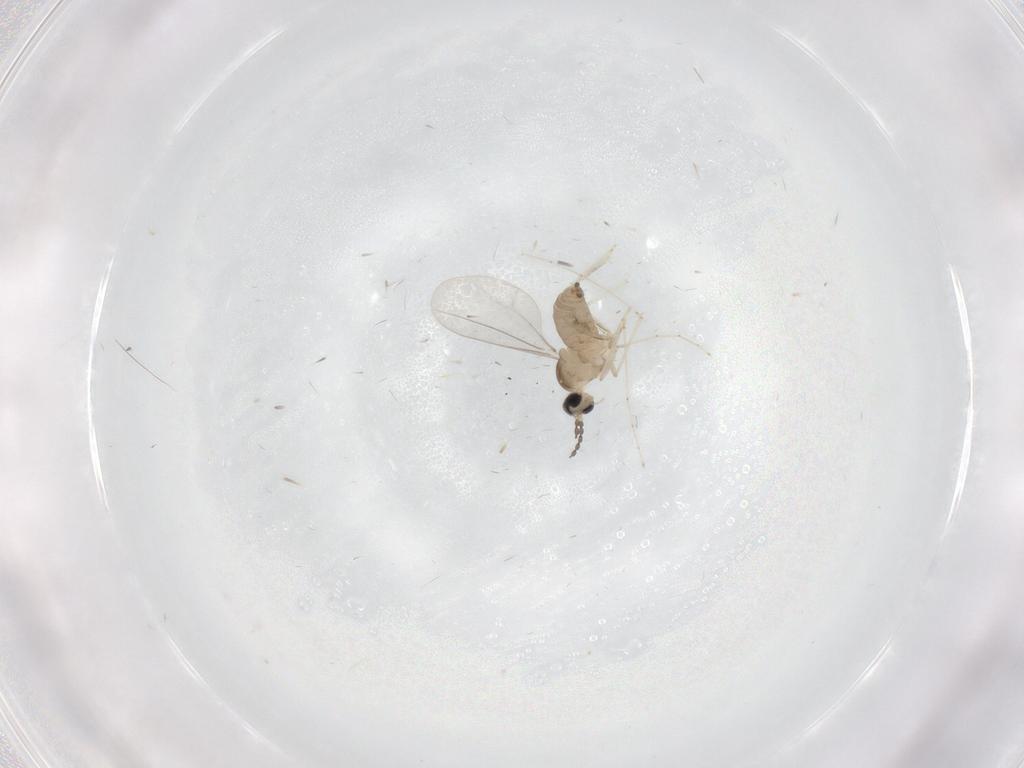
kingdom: Animalia
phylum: Arthropoda
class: Insecta
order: Diptera
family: Cecidomyiidae
